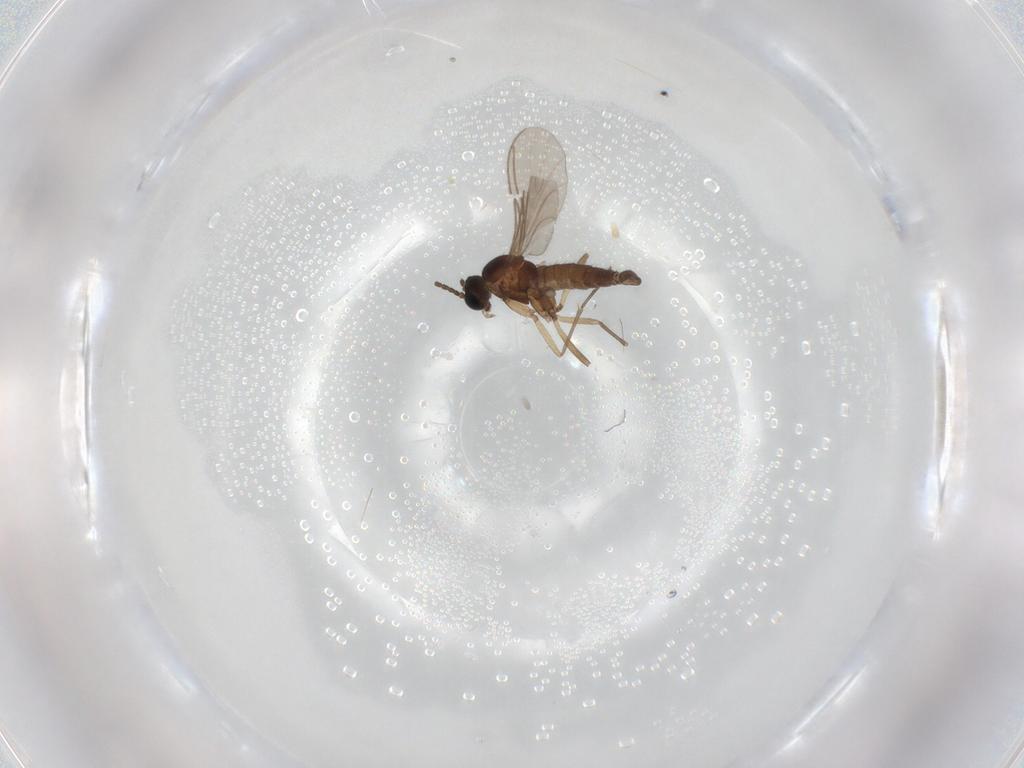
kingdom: Animalia
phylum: Arthropoda
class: Insecta
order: Diptera
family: Sciaridae
